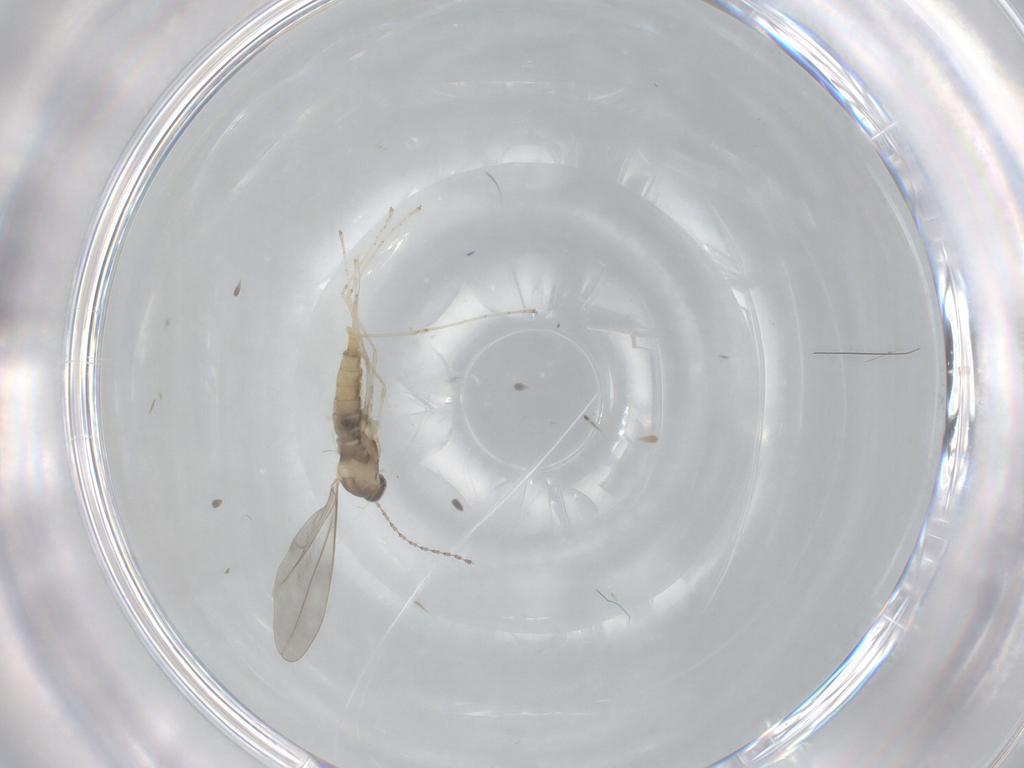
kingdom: Animalia
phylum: Arthropoda
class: Insecta
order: Diptera
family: Cecidomyiidae
